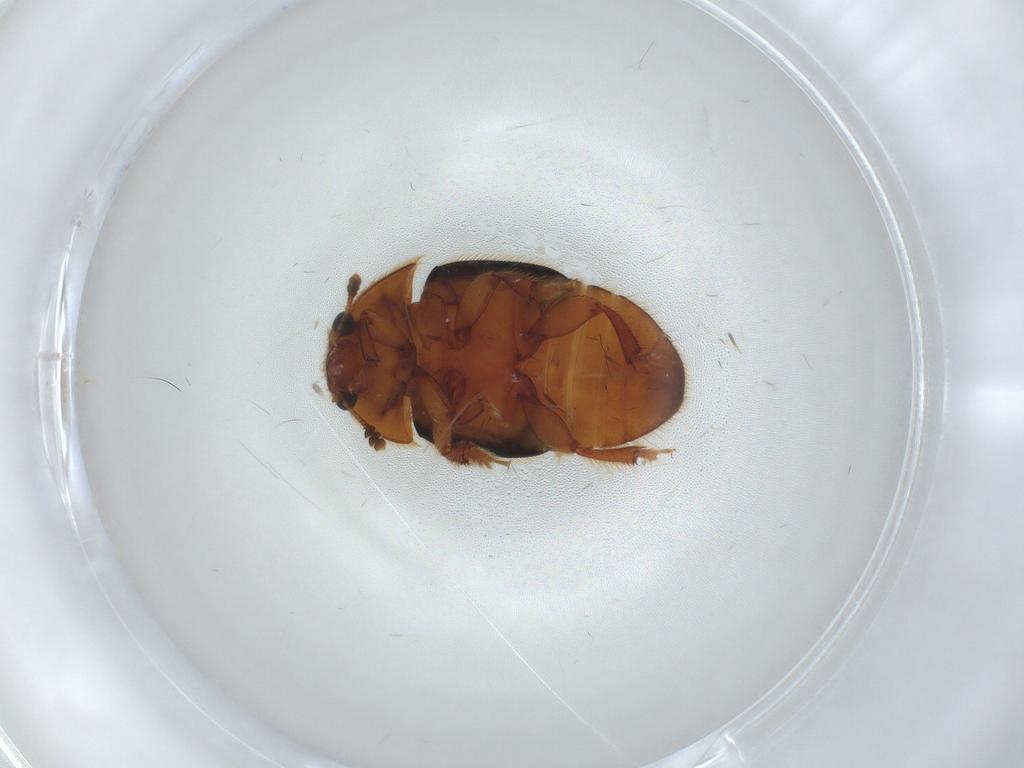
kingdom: Animalia
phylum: Arthropoda
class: Insecta
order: Coleoptera
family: Nitidulidae
